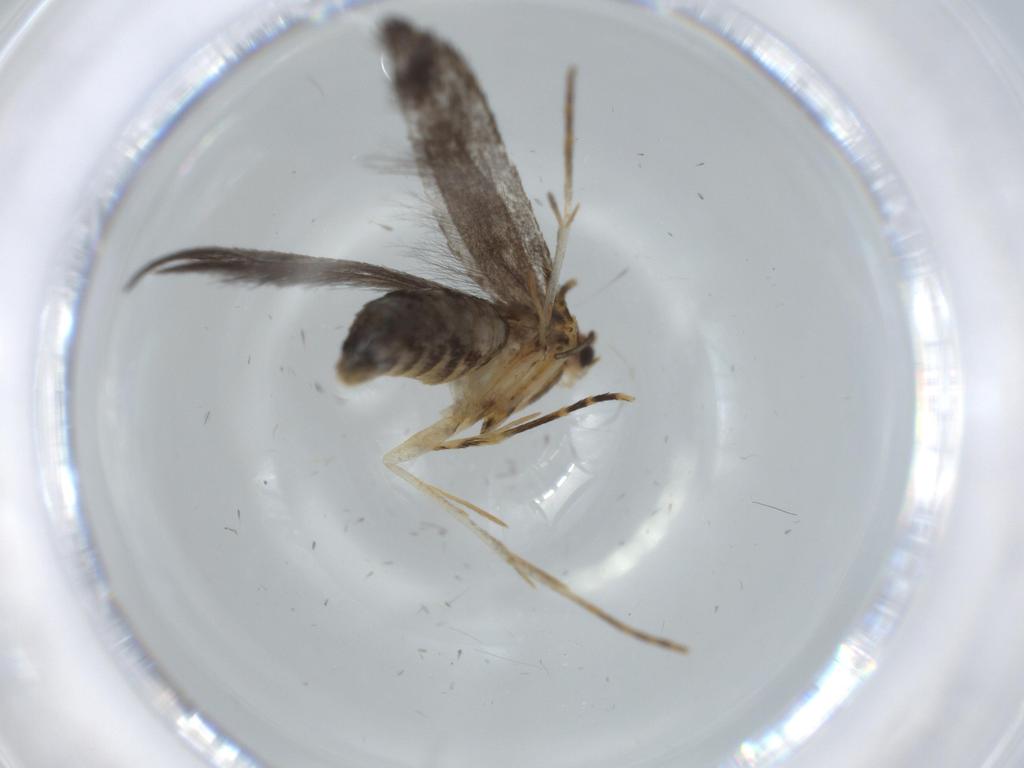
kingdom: Animalia
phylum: Arthropoda
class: Insecta
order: Lepidoptera
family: Tineidae
